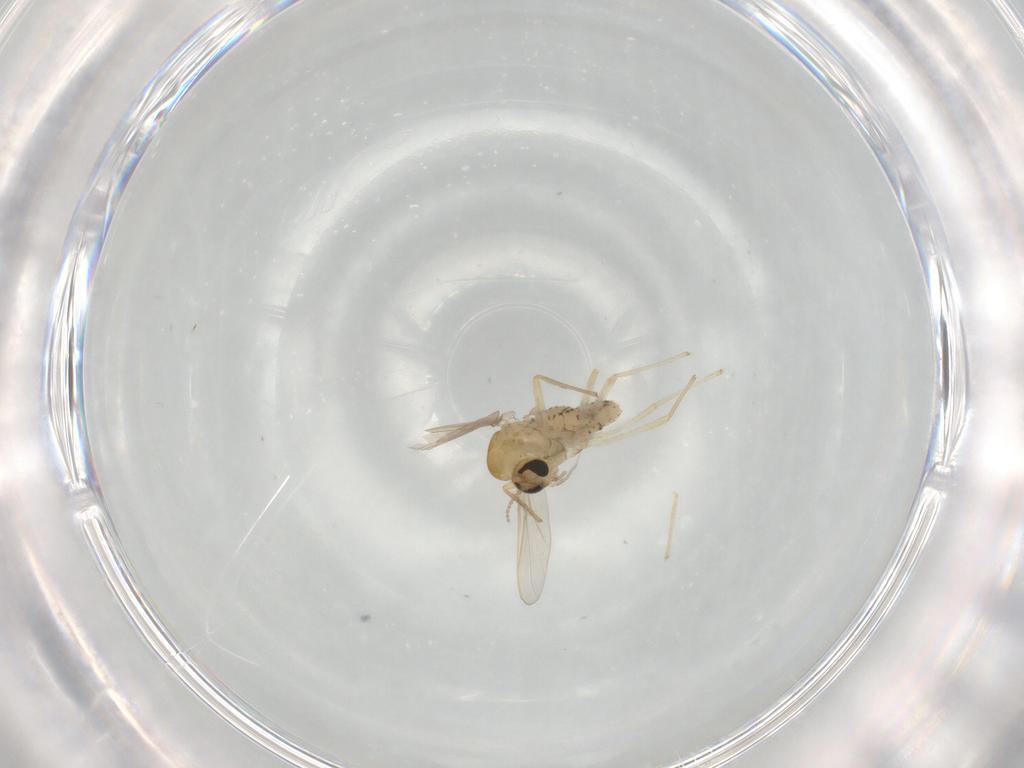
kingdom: Animalia
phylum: Arthropoda
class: Insecta
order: Diptera
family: Chironomidae
